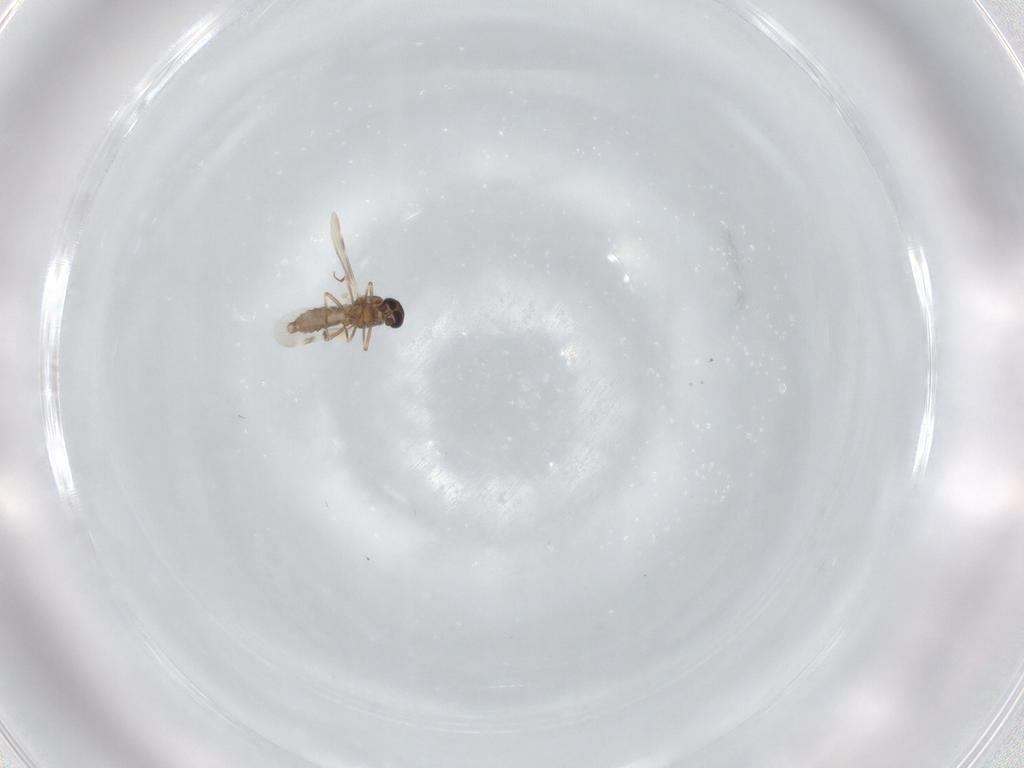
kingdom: Animalia
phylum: Arthropoda
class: Insecta
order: Diptera
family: Ceratopogonidae
